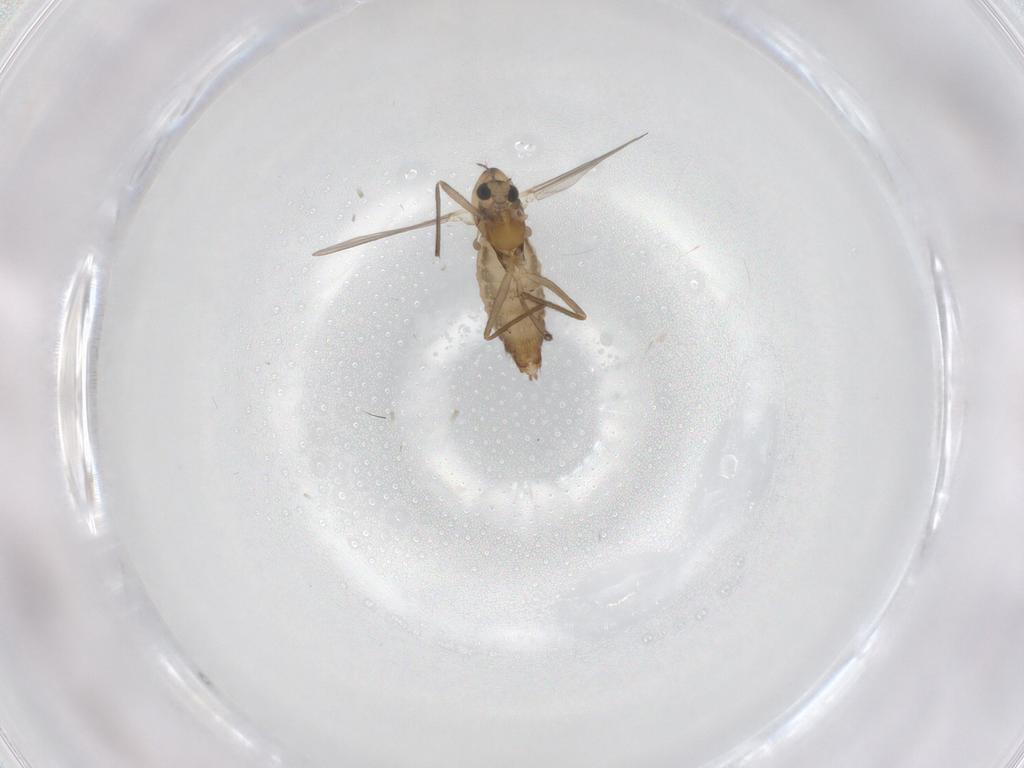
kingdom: Animalia
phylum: Arthropoda
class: Insecta
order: Diptera
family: Chironomidae
